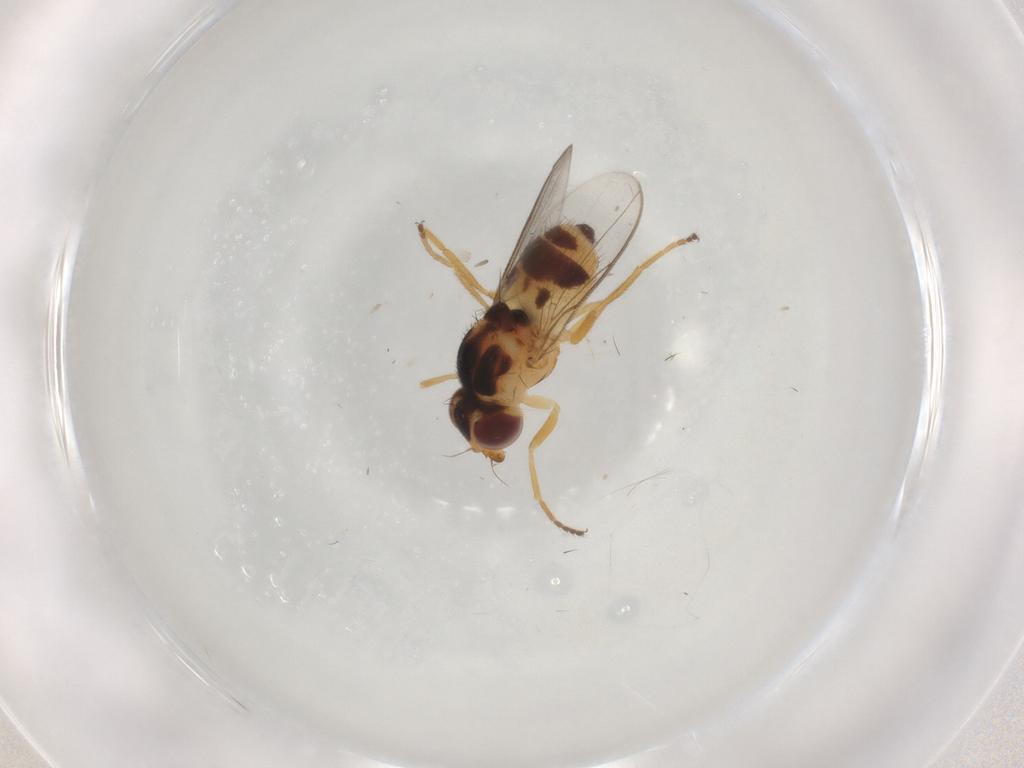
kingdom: Animalia
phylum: Arthropoda
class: Insecta
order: Diptera
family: Chloropidae
